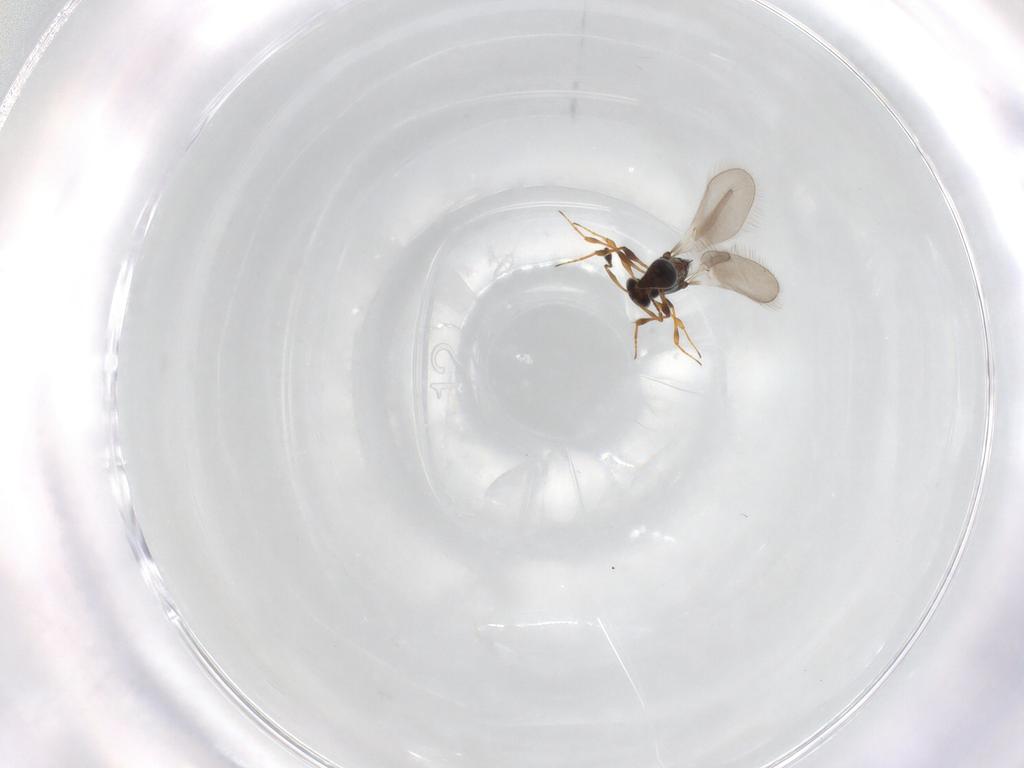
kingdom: Animalia
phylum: Arthropoda
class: Insecta
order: Hymenoptera
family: Platygastridae
